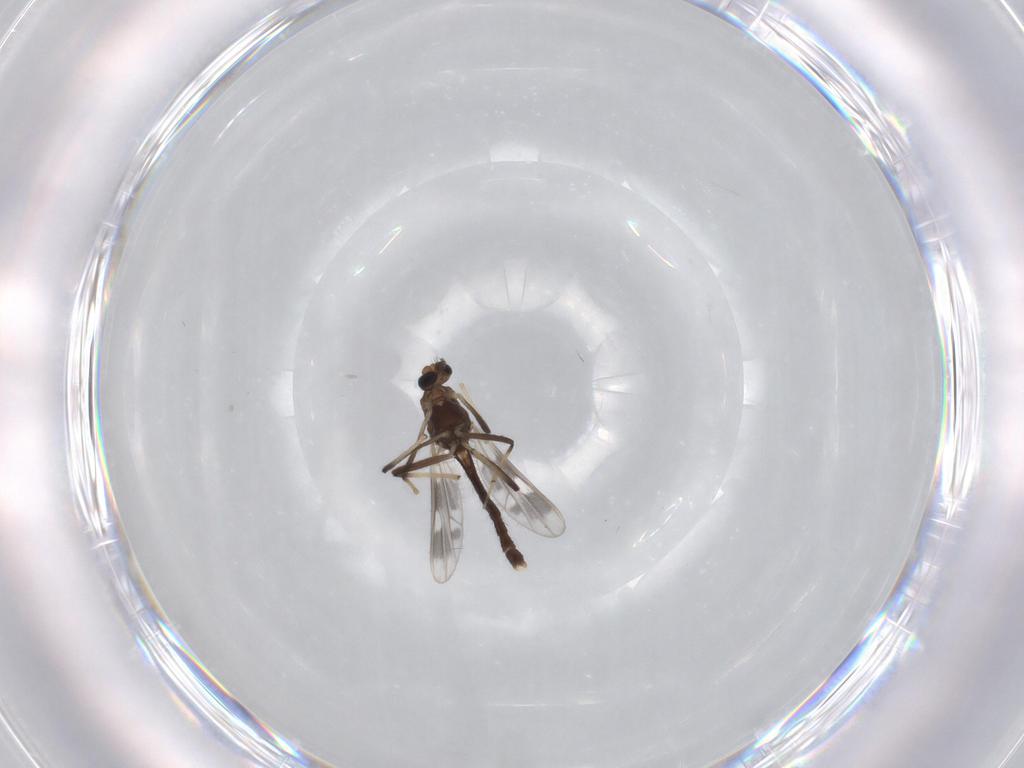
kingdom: Animalia
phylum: Arthropoda
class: Insecta
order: Diptera
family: Chironomidae
